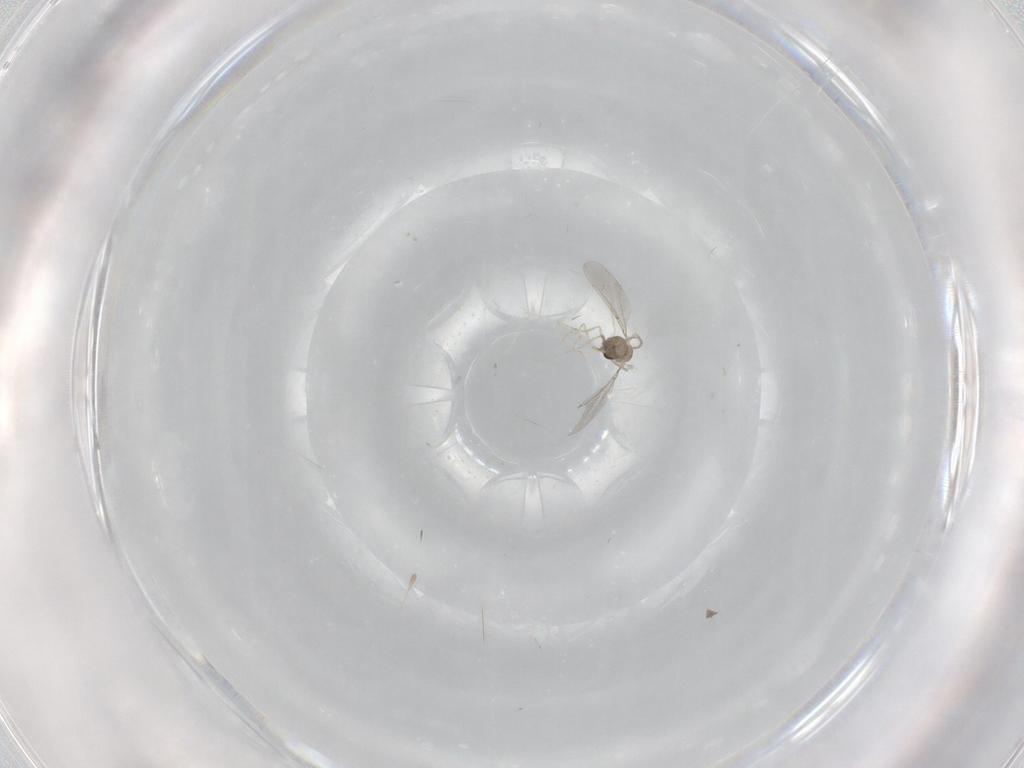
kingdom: Animalia
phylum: Arthropoda
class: Insecta
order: Diptera
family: Cecidomyiidae
